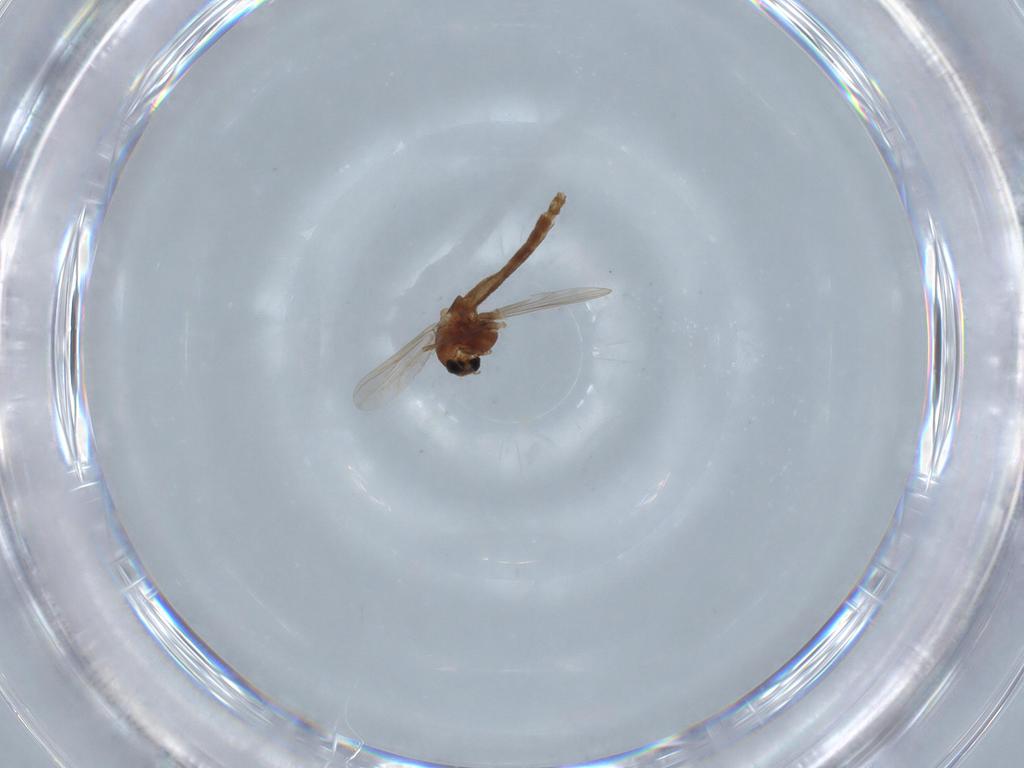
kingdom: Animalia
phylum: Arthropoda
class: Insecta
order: Diptera
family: Chironomidae
